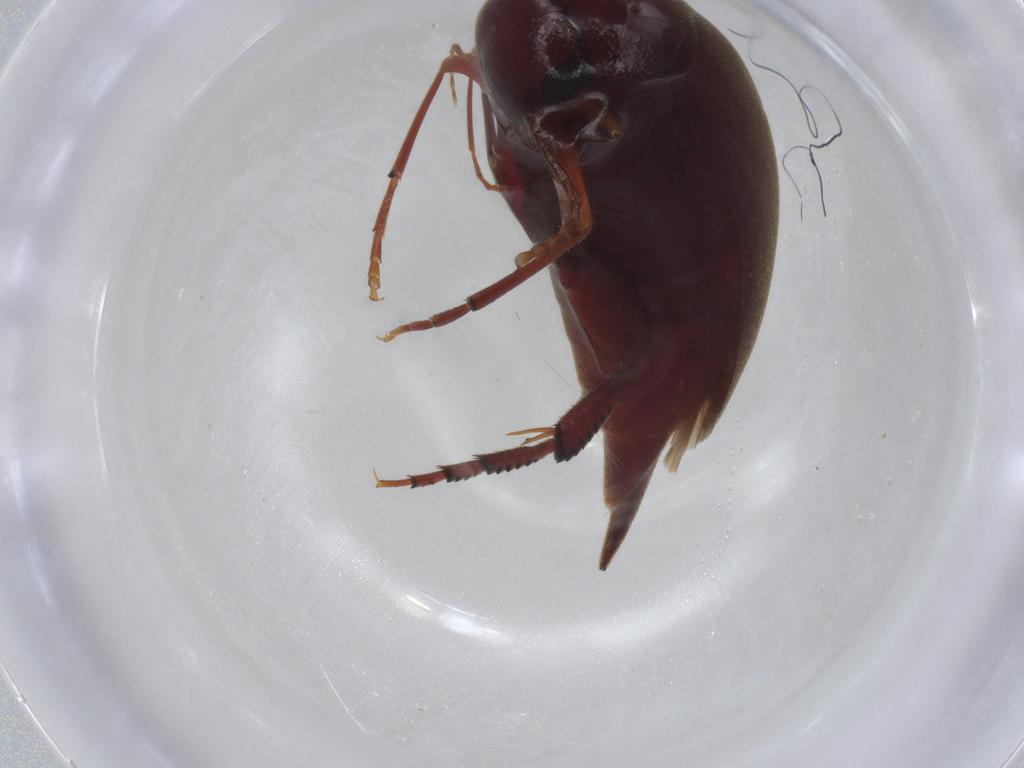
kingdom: Animalia
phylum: Arthropoda
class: Insecta
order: Coleoptera
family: Mordellidae
